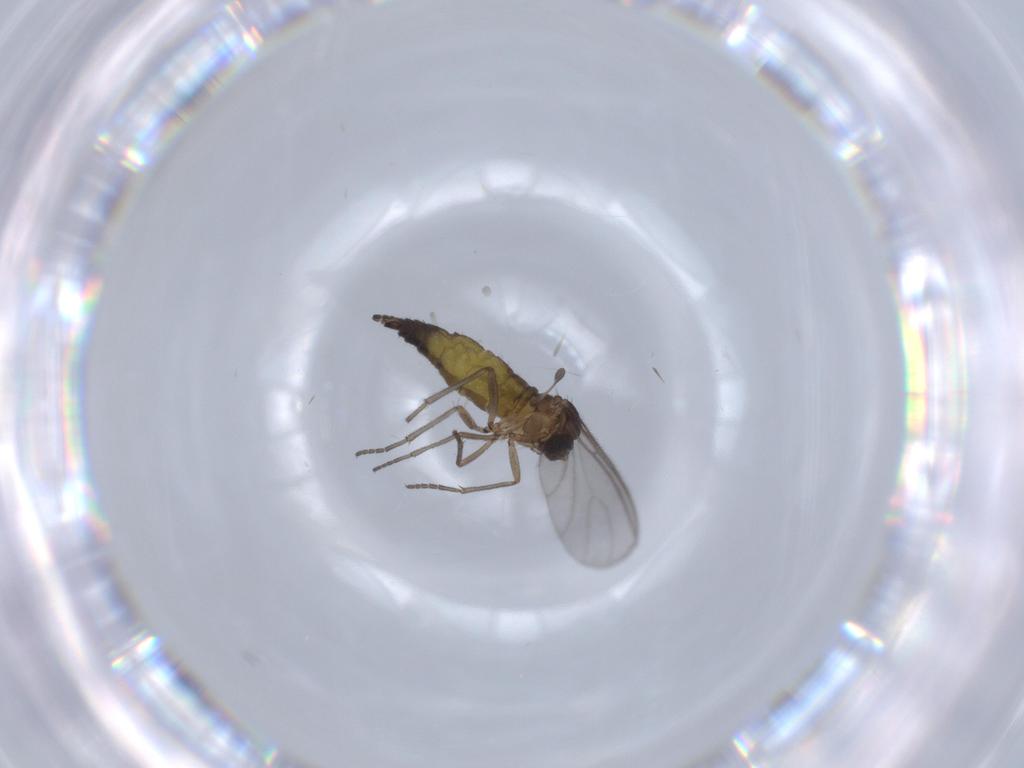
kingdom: Animalia
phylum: Arthropoda
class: Insecta
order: Diptera
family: Sciaridae
